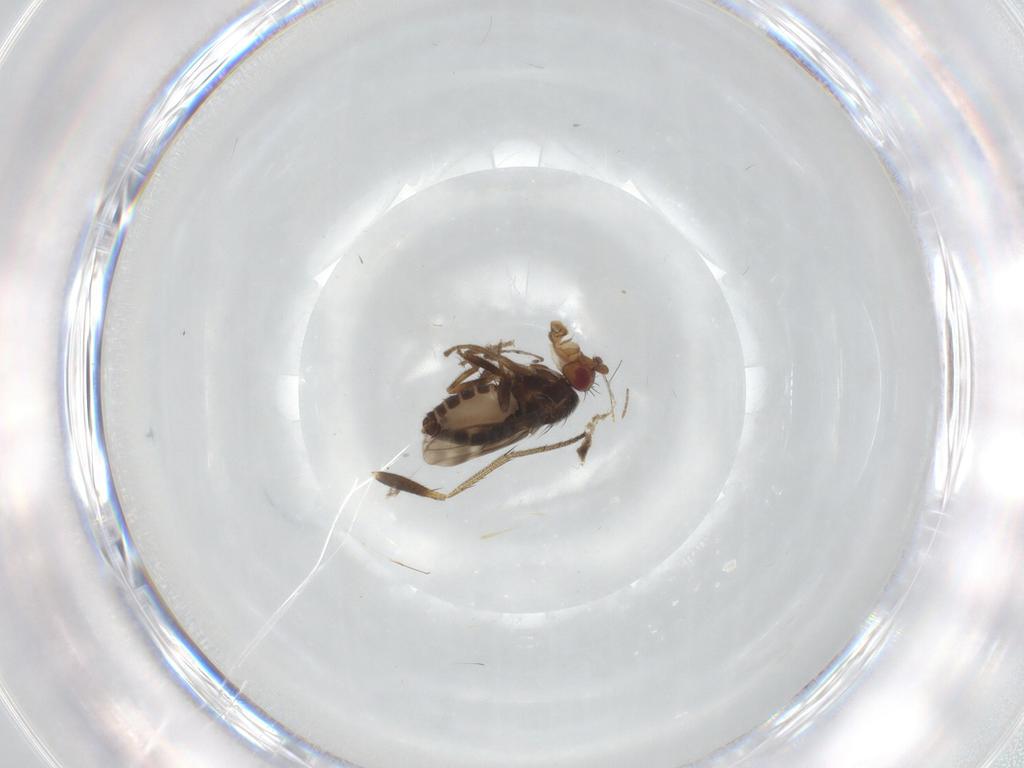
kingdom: Animalia
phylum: Arthropoda
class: Insecta
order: Diptera
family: Sphaeroceridae
